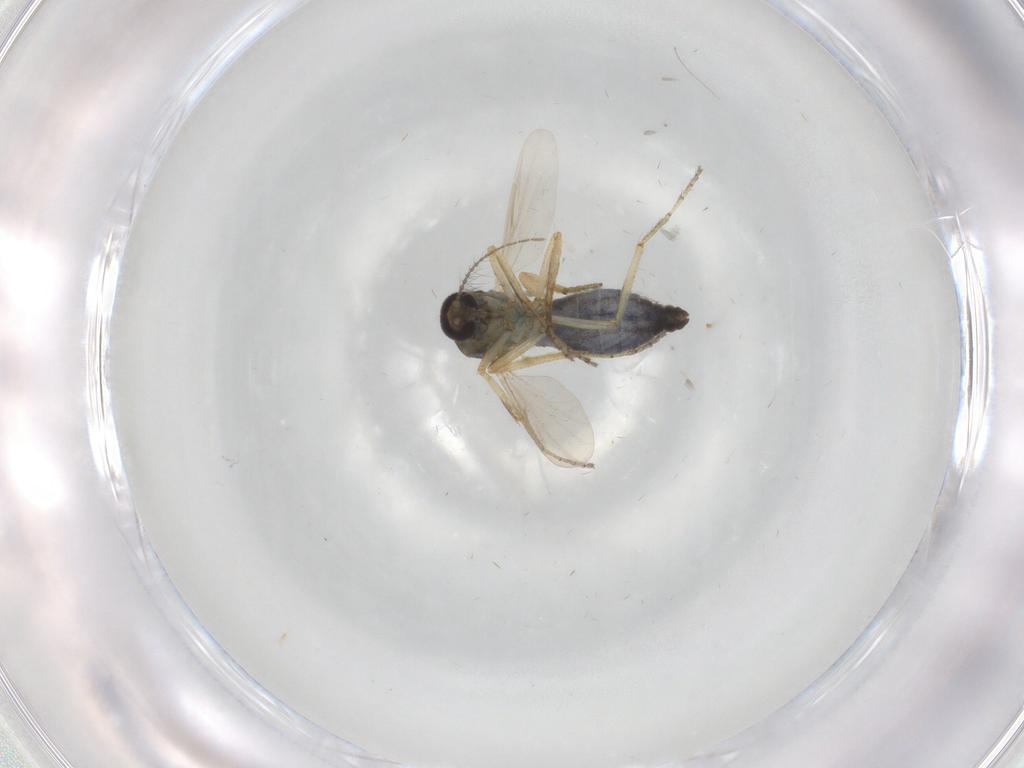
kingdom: Animalia
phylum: Arthropoda
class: Insecta
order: Diptera
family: Ceratopogonidae
